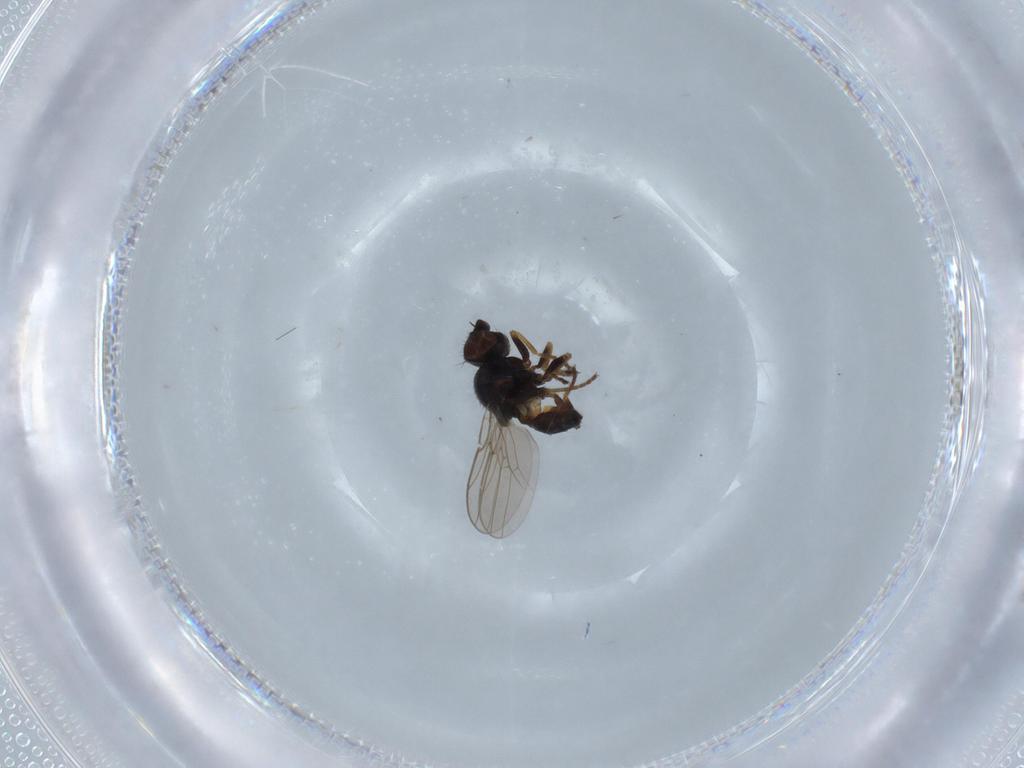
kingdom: Animalia
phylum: Arthropoda
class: Insecta
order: Diptera
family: Chloropidae
